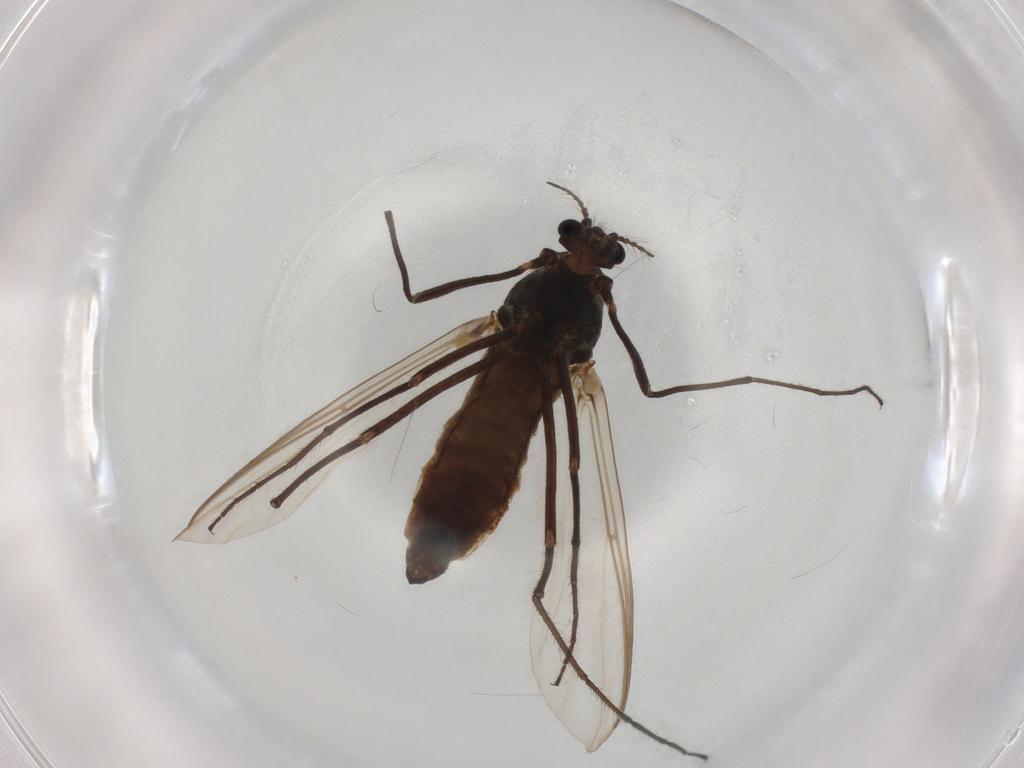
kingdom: Animalia
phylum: Arthropoda
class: Insecta
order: Diptera
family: Chironomidae
